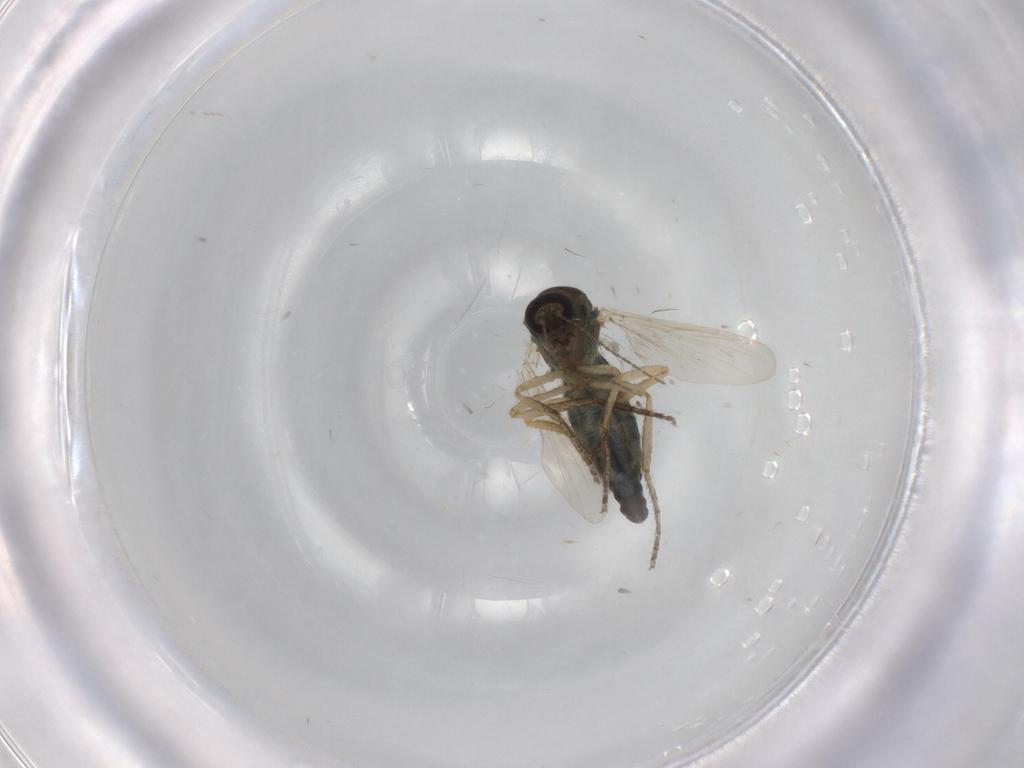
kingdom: Animalia
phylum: Arthropoda
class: Insecta
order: Diptera
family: Ceratopogonidae
